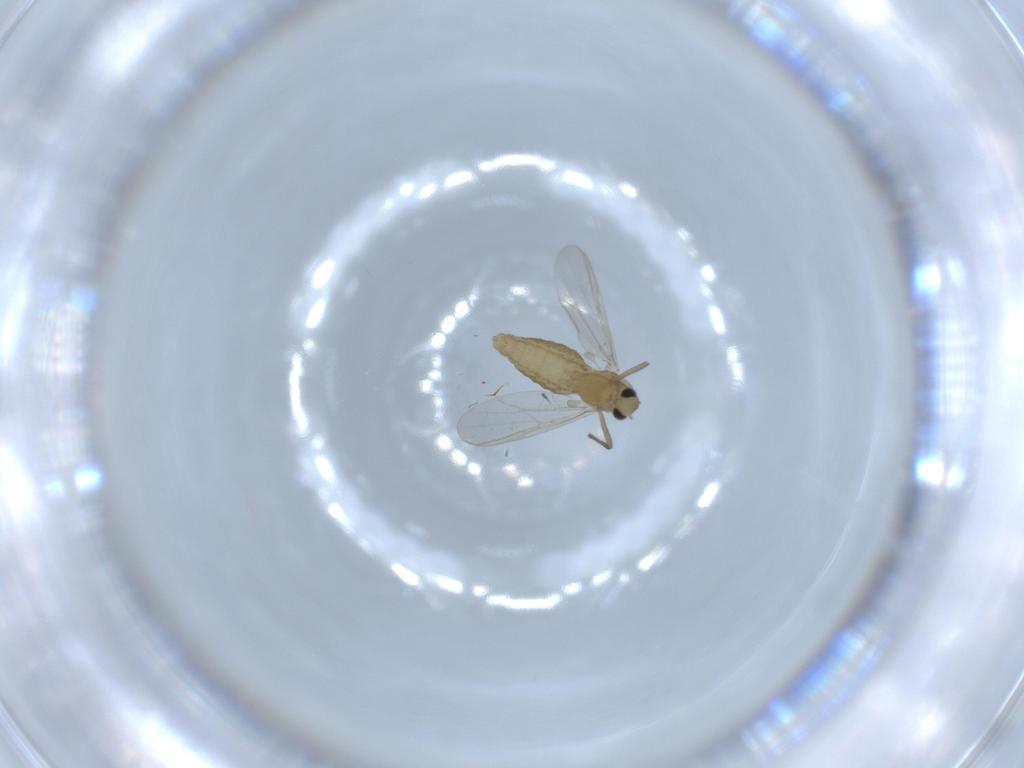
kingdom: Animalia
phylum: Arthropoda
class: Insecta
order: Diptera
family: Chironomidae
